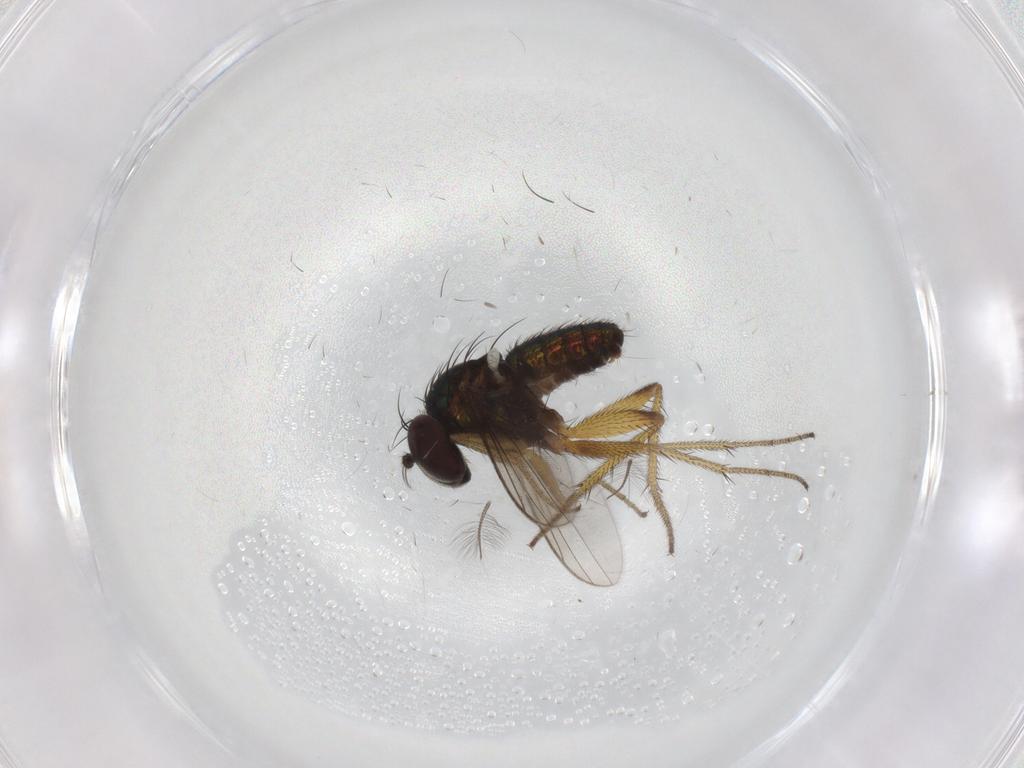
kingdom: Animalia
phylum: Arthropoda
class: Insecta
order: Diptera
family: Chironomidae
